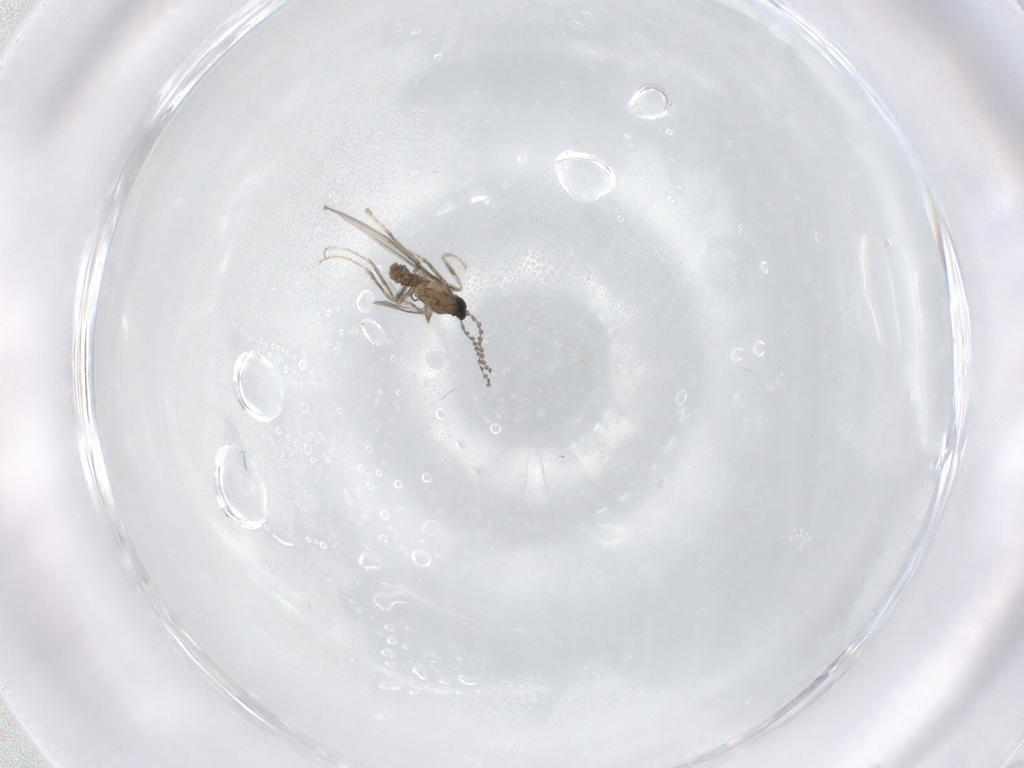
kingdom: Animalia
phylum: Arthropoda
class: Insecta
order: Diptera
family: Cecidomyiidae
